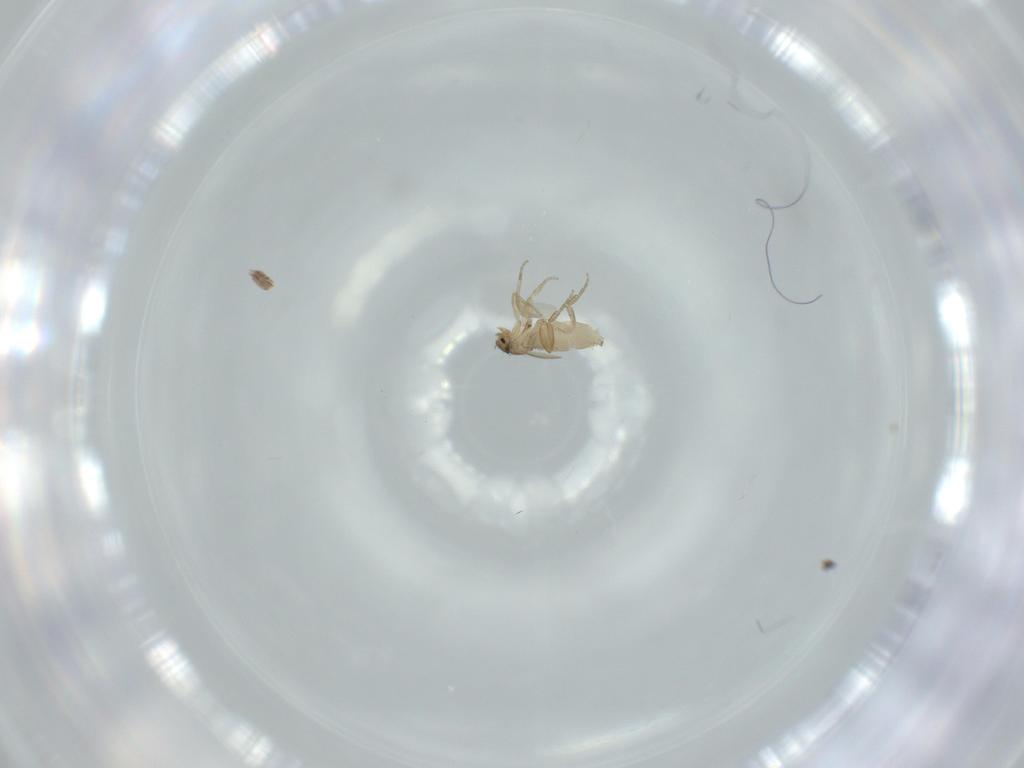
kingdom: Animalia
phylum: Arthropoda
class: Insecta
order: Diptera
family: Phoridae
